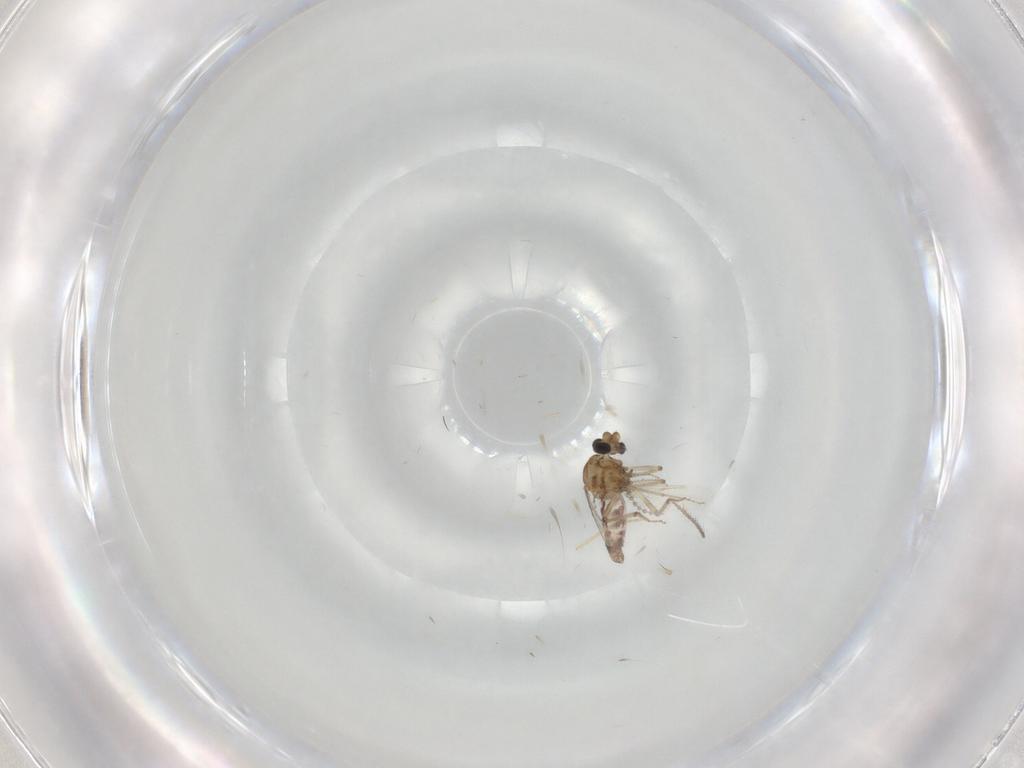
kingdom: Animalia
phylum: Arthropoda
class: Insecta
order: Diptera
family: Ceratopogonidae
